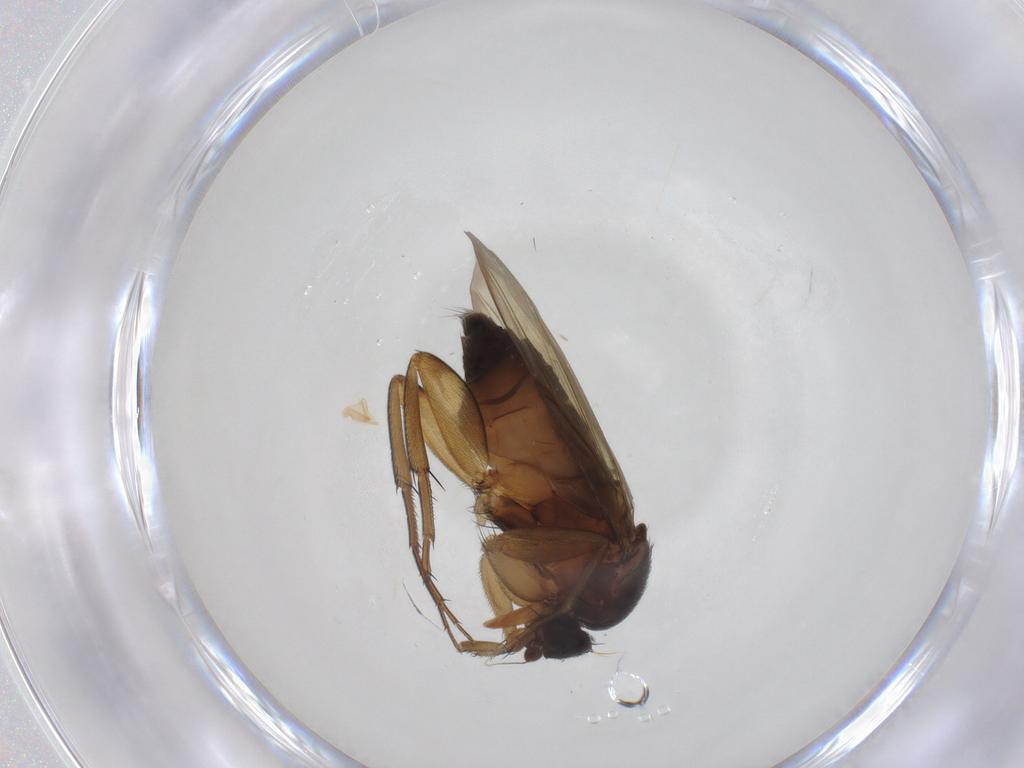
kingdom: Animalia
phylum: Arthropoda
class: Insecta
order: Diptera
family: Phoridae
